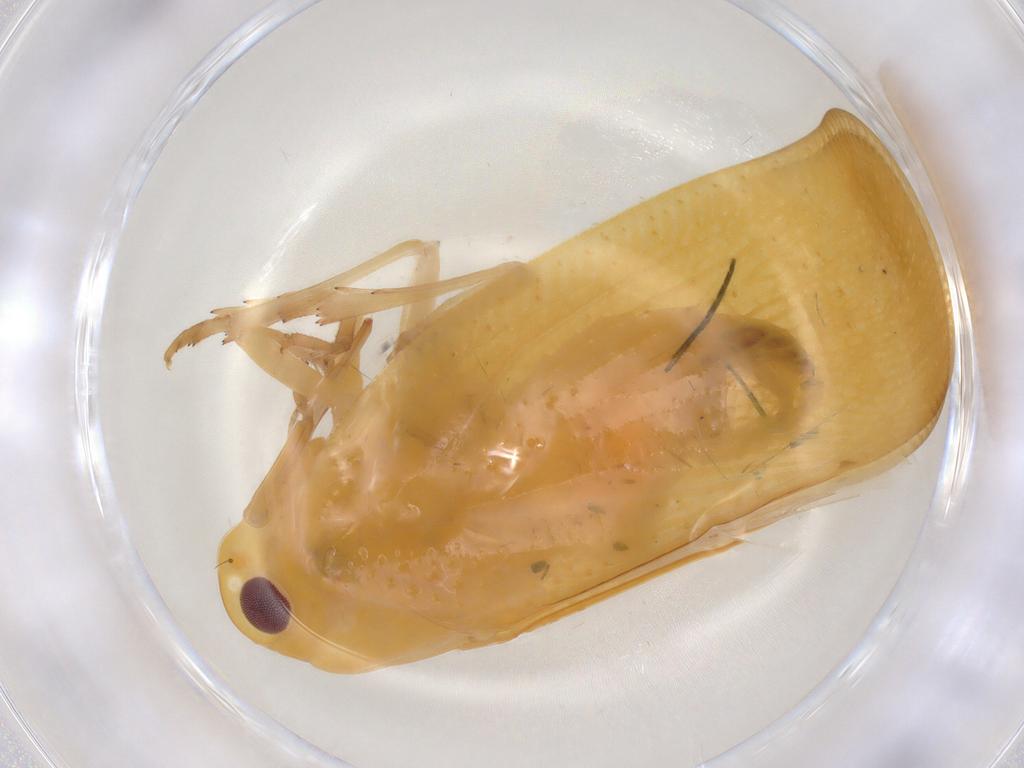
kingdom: Animalia
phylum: Arthropoda
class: Insecta
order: Hemiptera
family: Flatidae
